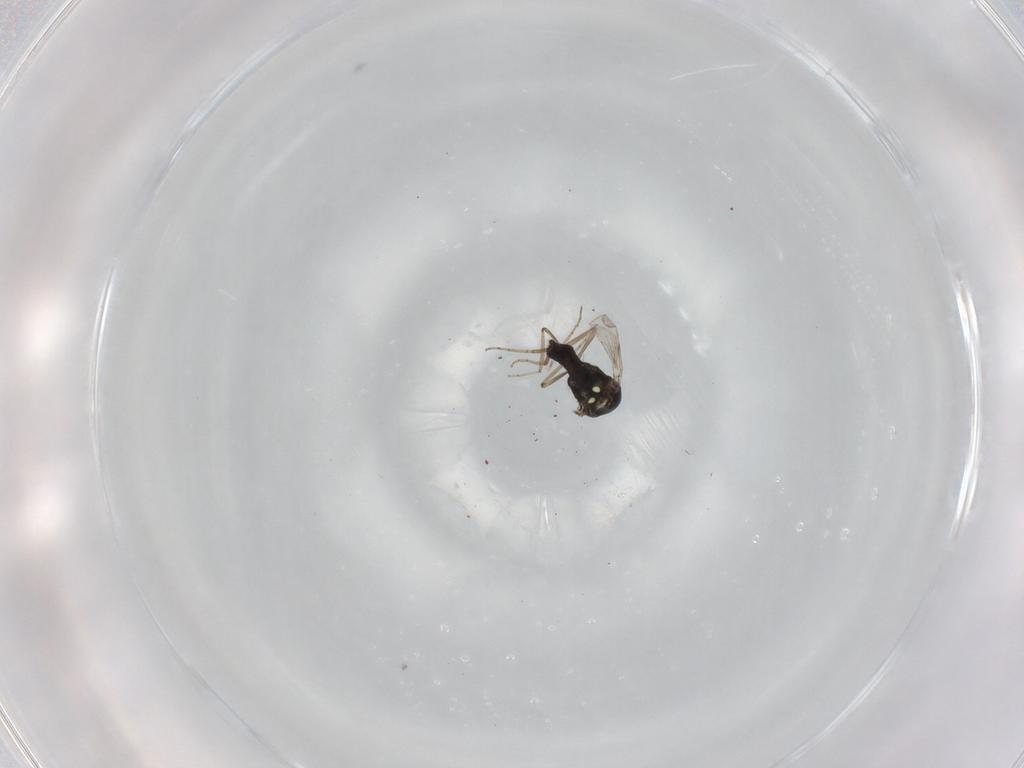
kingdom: Animalia
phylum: Arthropoda
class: Insecta
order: Diptera
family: Ceratopogonidae
